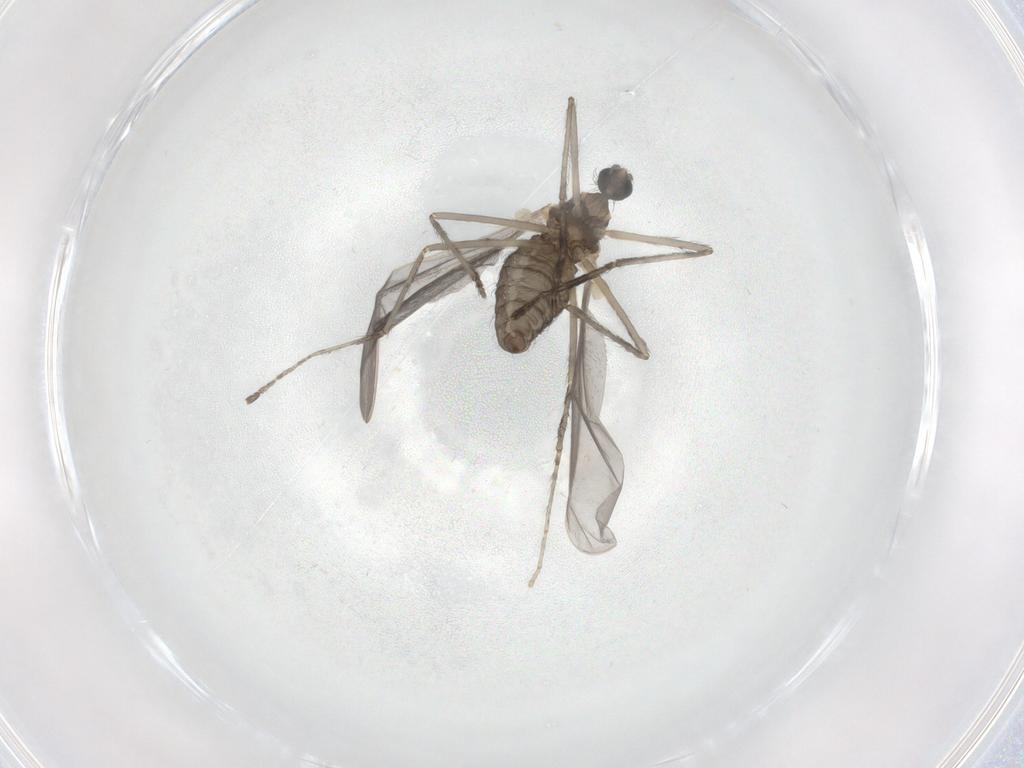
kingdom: Animalia
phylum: Arthropoda
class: Insecta
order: Diptera
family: Cecidomyiidae
